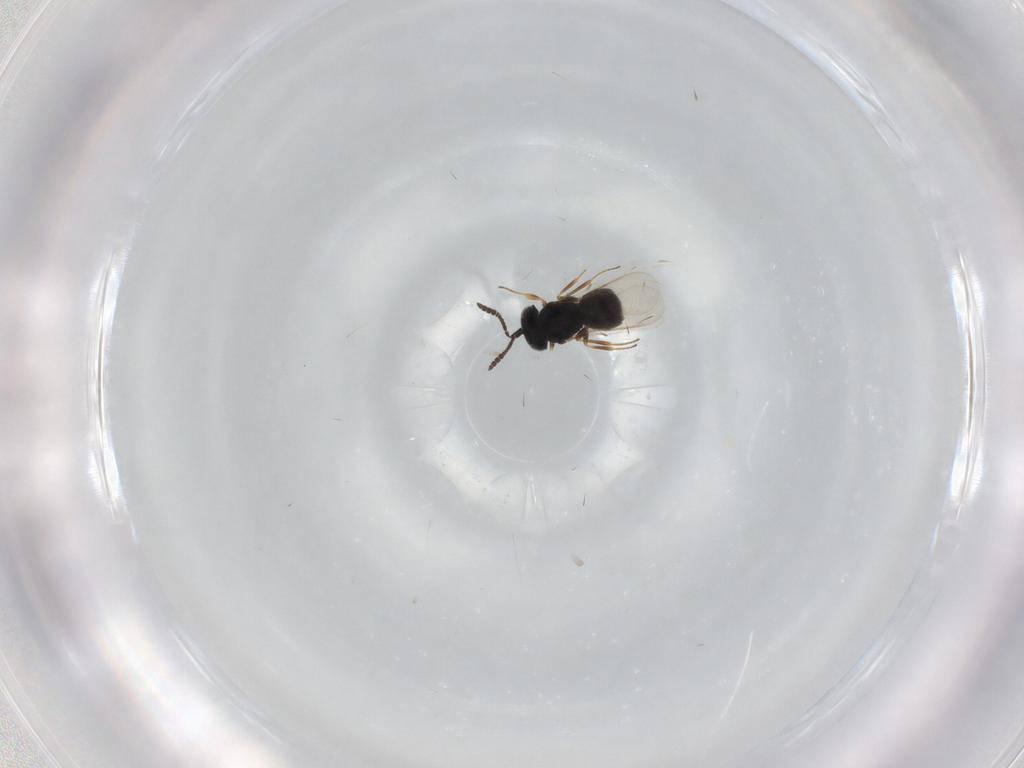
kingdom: Animalia
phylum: Arthropoda
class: Insecta
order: Hymenoptera
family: Scelionidae
